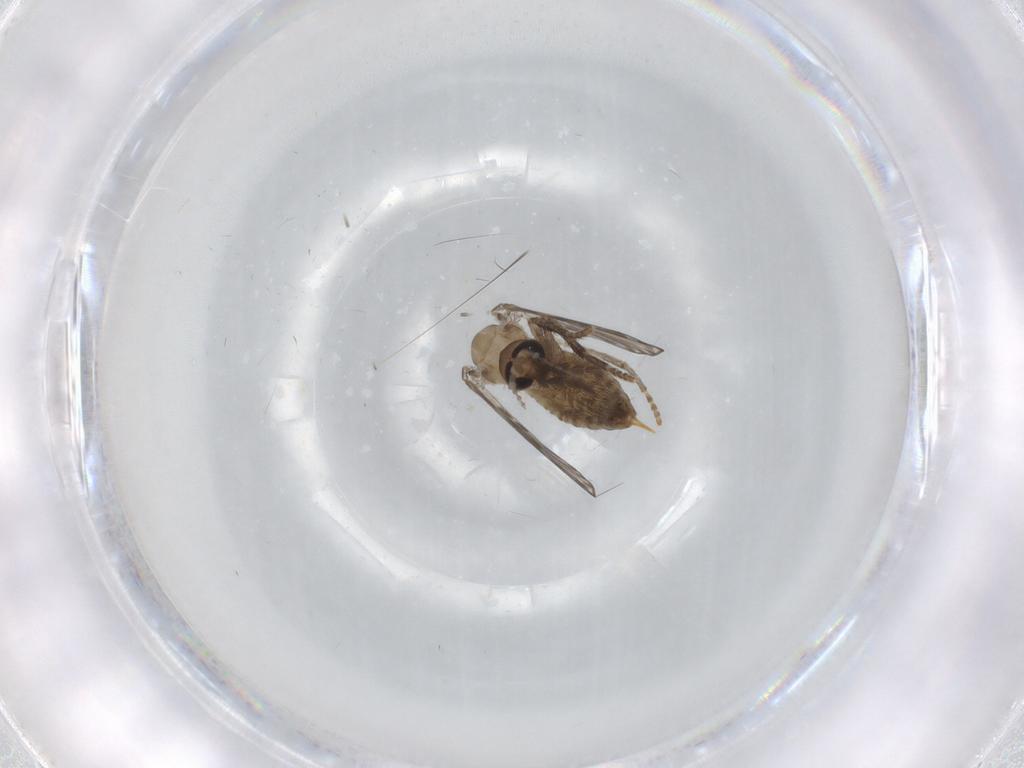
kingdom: Animalia
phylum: Arthropoda
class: Insecta
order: Diptera
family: Psychodidae
